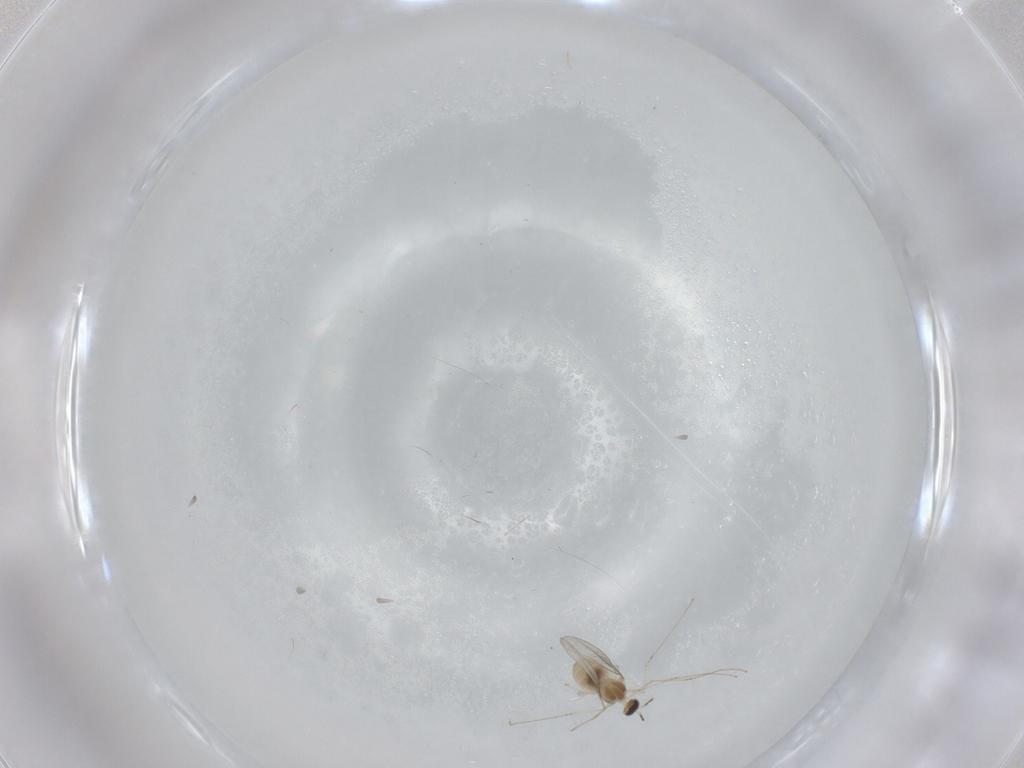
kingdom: Animalia
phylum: Arthropoda
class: Insecta
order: Diptera
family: Cecidomyiidae
